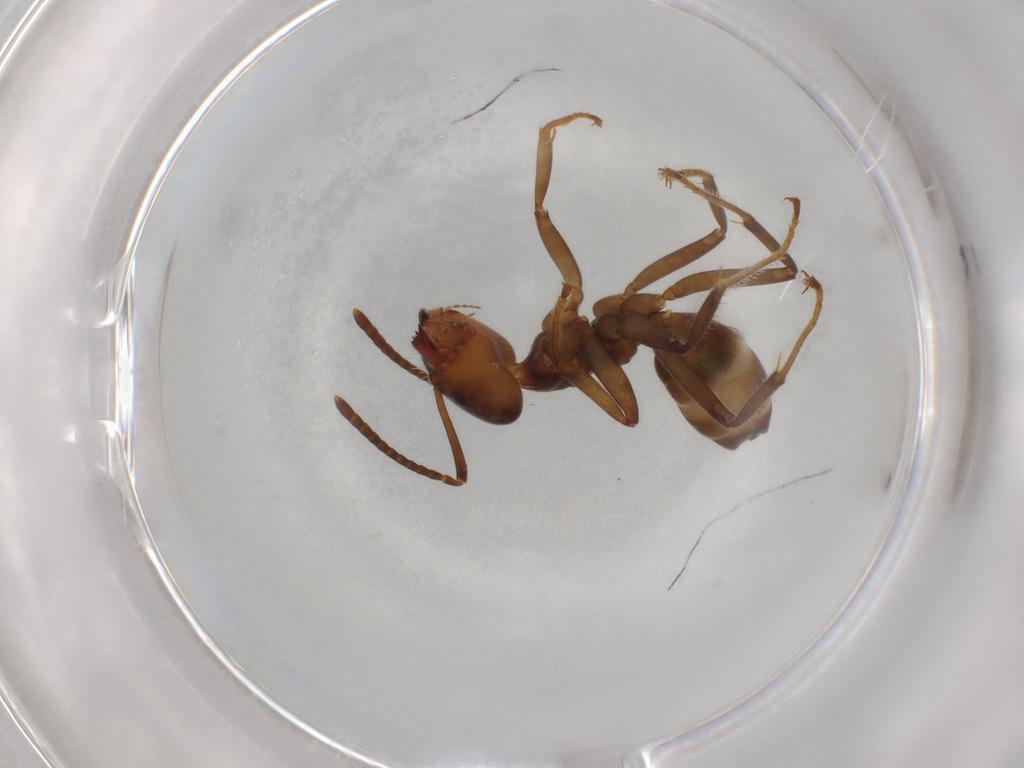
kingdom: Animalia
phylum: Arthropoda
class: Insecta
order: Hymenoptera
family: Formicidae
